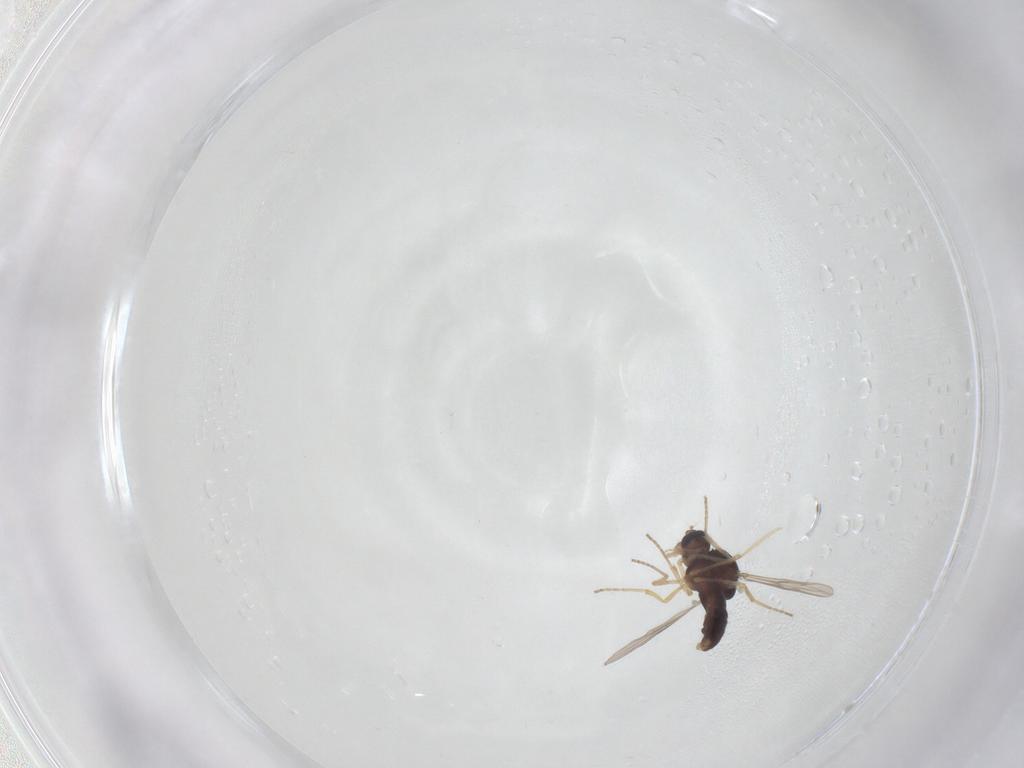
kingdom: Animalia
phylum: Arthropoda
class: Insecta
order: Diptera
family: Ceratopogonidae
